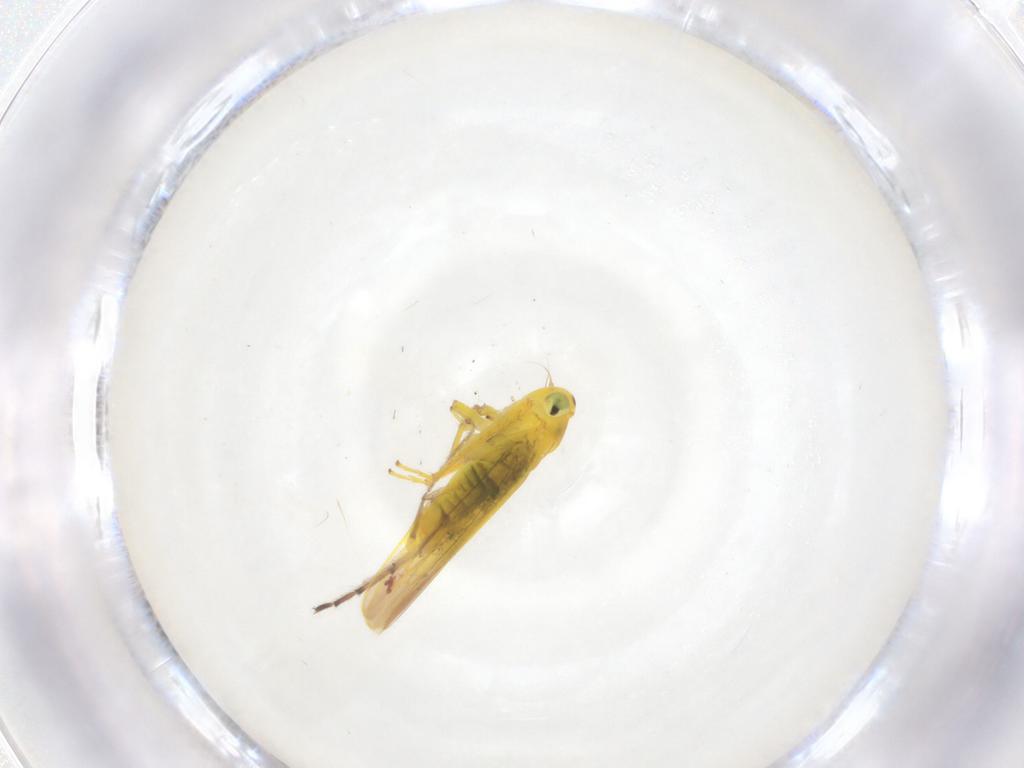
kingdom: Animalia
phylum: Arthropoda
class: Insecta
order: Hemiptera
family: Cicadellidae
